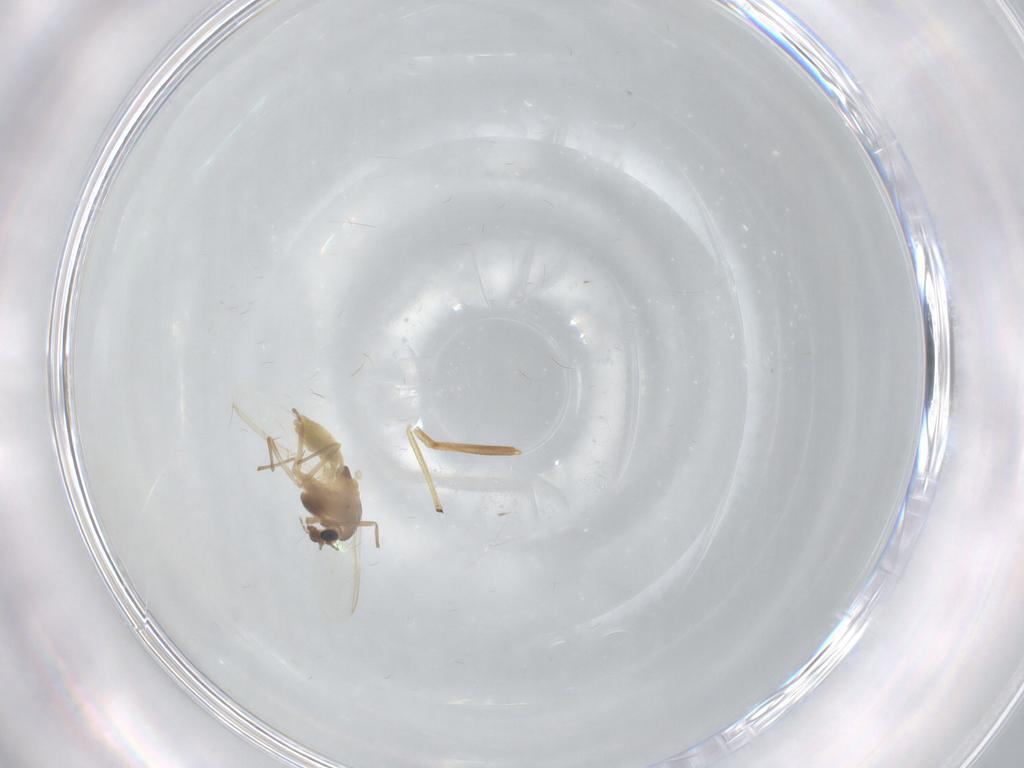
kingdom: Animalia
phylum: Arthropoda
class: Insecta
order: Diptera
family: Chironomidae
